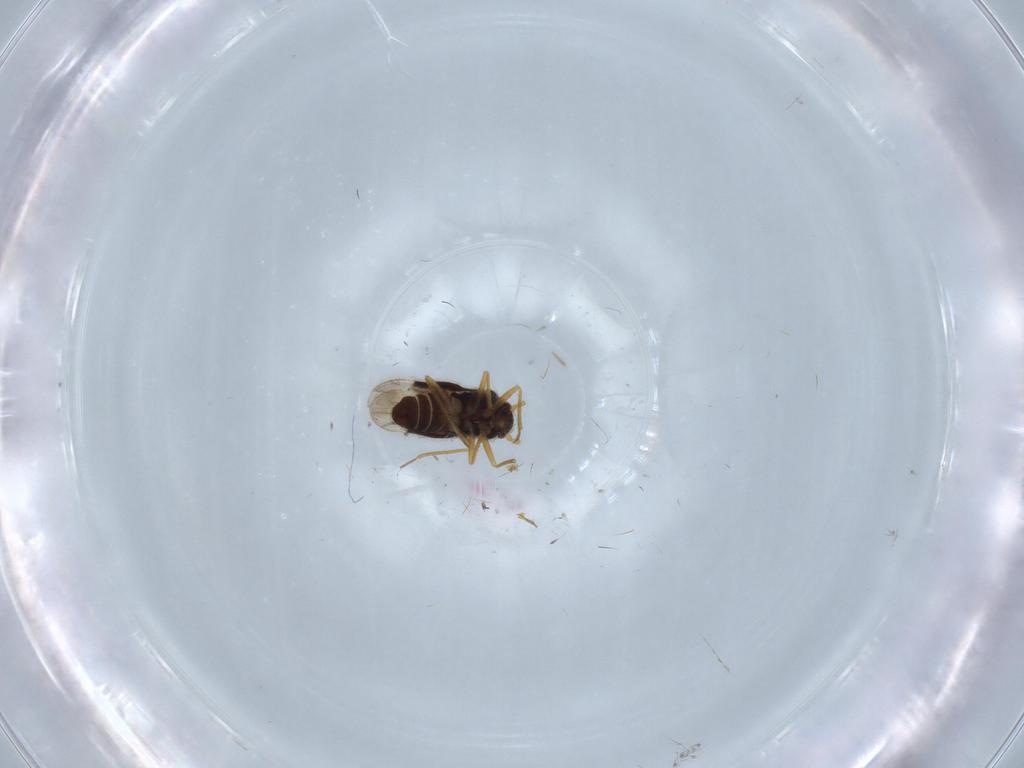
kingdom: Animalia
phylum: Arthropoda
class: Insecta
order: Hemiptera
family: Schizopteridae
